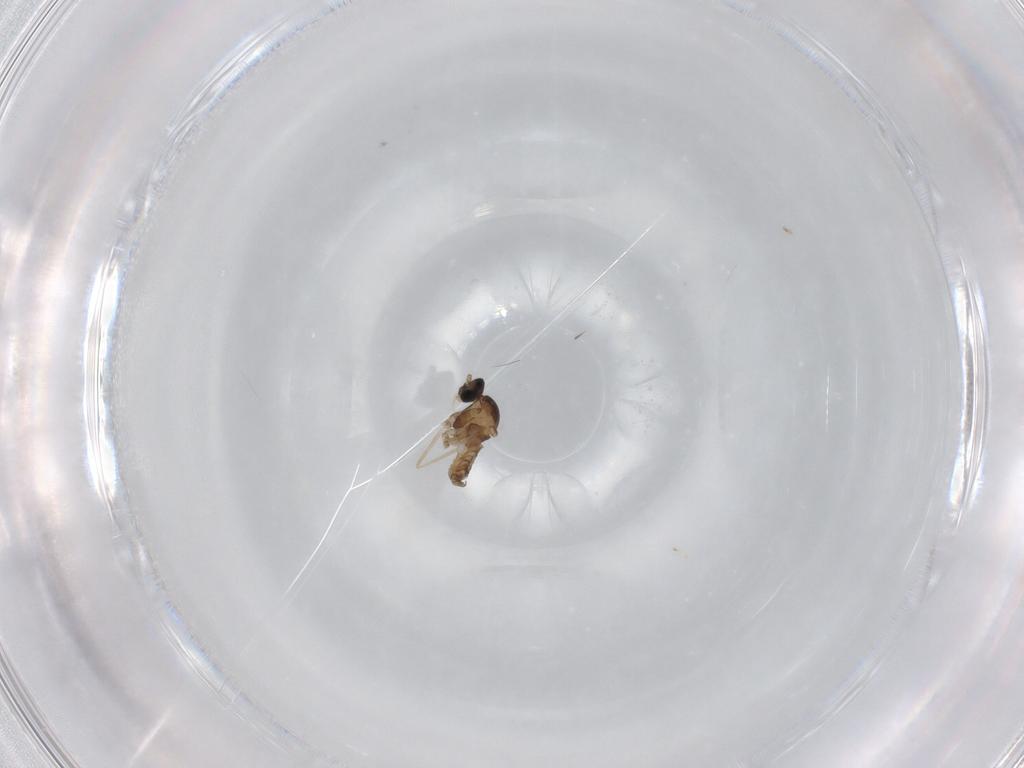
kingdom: Animalia
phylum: Arthropoda
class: Insecta
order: Diptera
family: Cecidomyiidae
